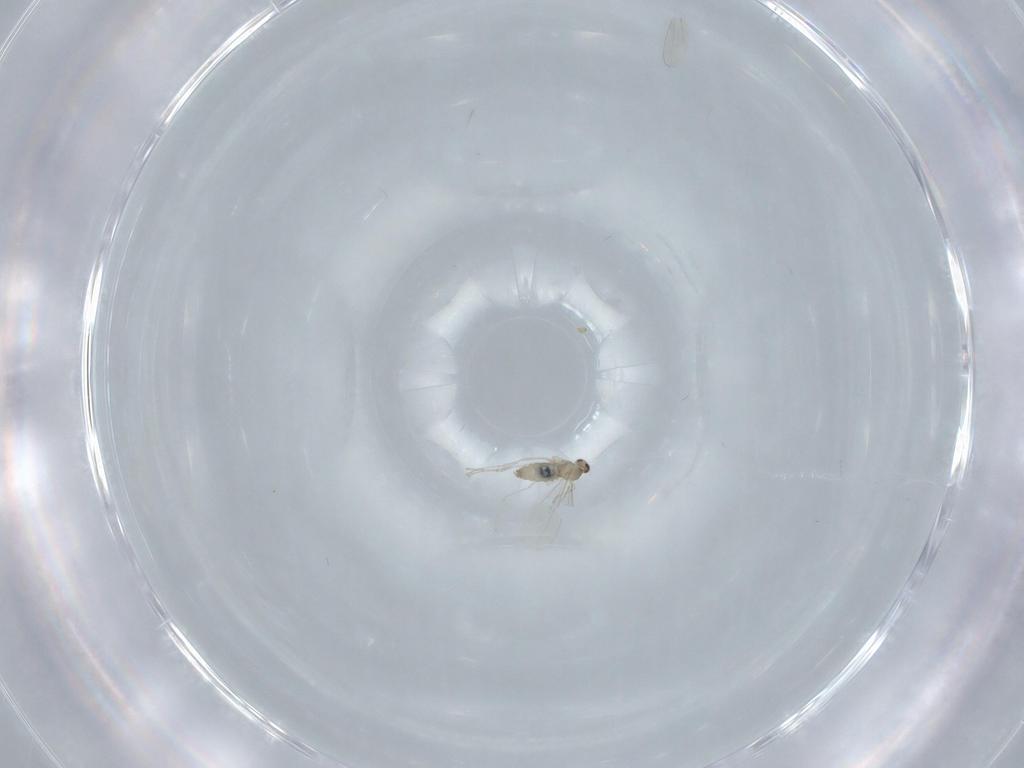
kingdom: Animalia
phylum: Arthropoda
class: Insecta
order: Diptera
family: Cecidomyiidae
